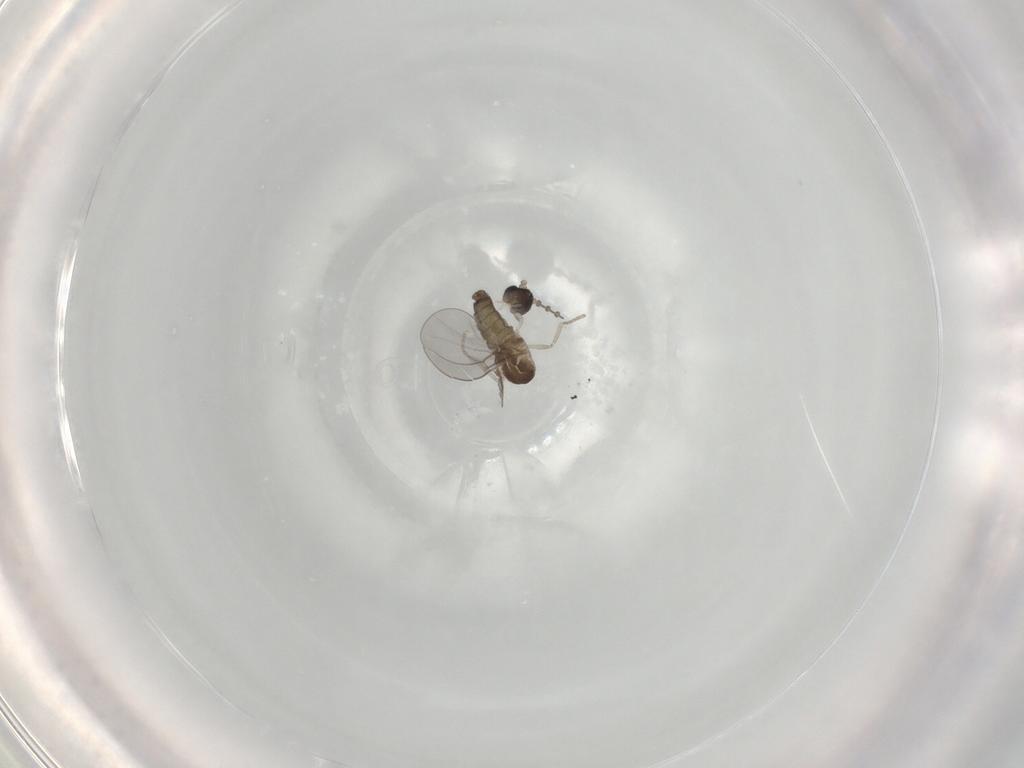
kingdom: Animalia
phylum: Arthropoda
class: Insecta
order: Diptera
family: Cecidomyiidae
